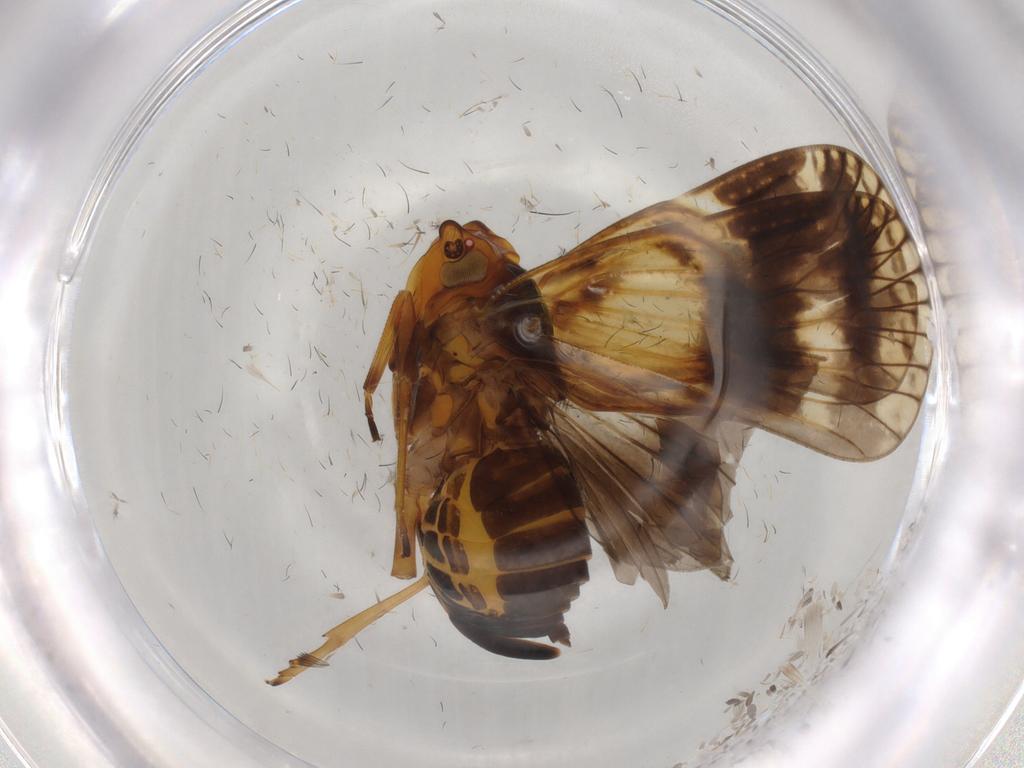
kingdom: Animalia
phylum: Arthropoda
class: Insecta
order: Hemiptera
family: Cixiidae
